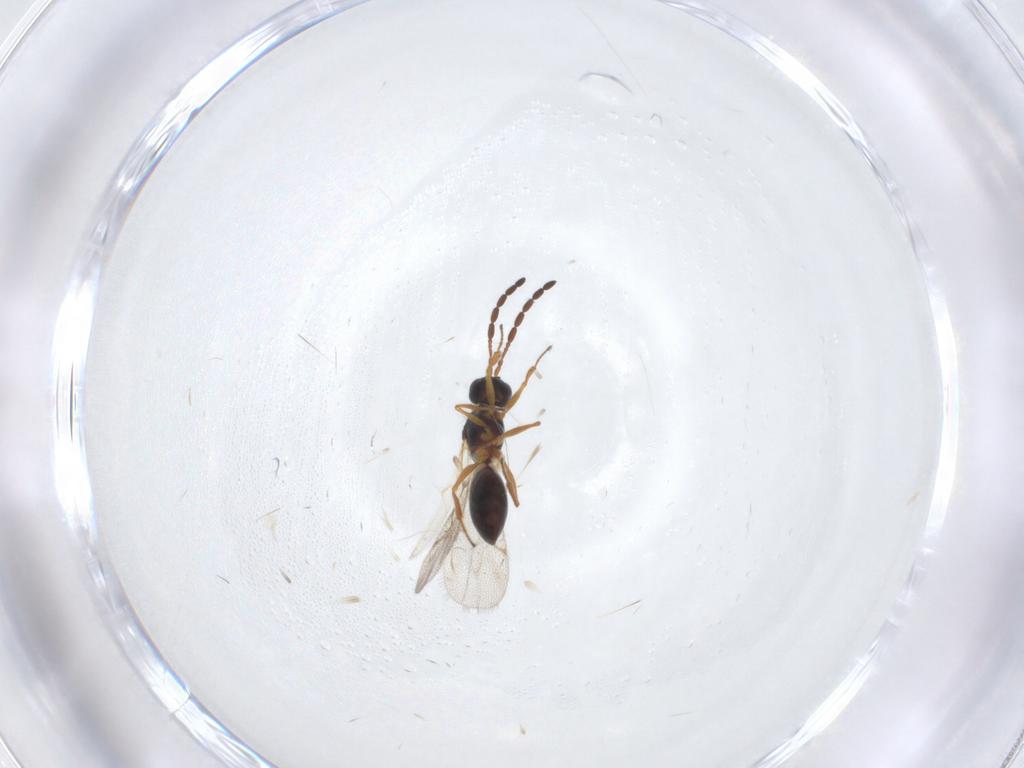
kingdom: Animalia
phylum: Arthropoda
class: Insecta
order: Hymenoptera
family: Figitidae
